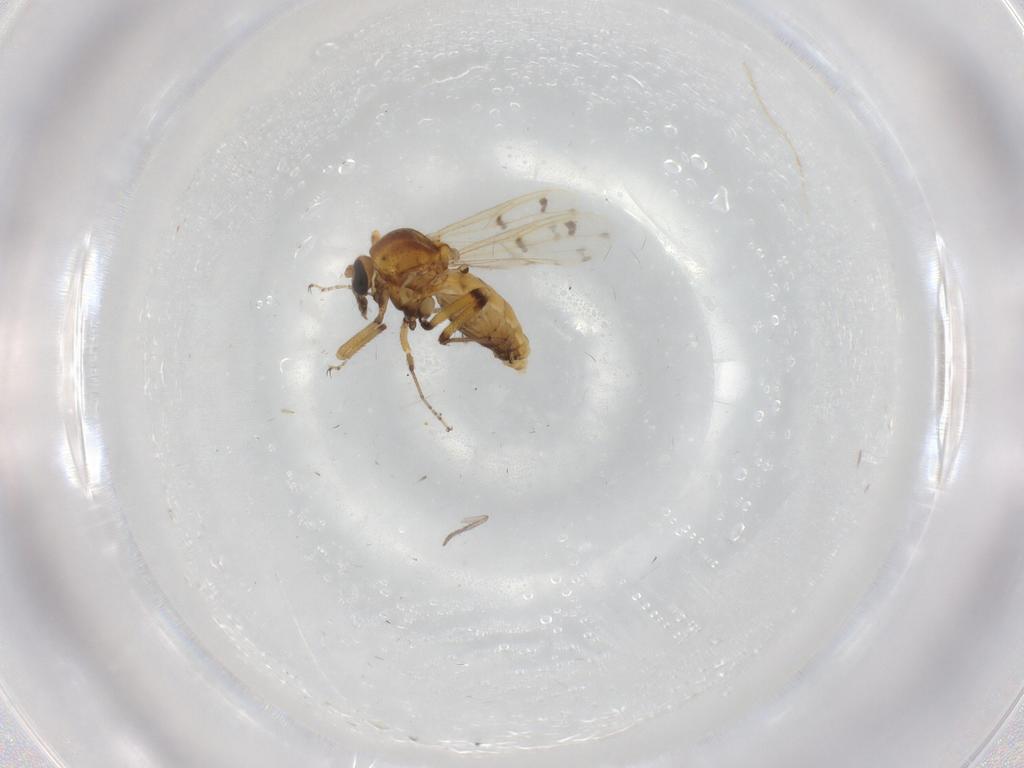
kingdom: Animalia
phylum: Arthropoda
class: Insecta
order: Diptera
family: Ceratopogonidae
